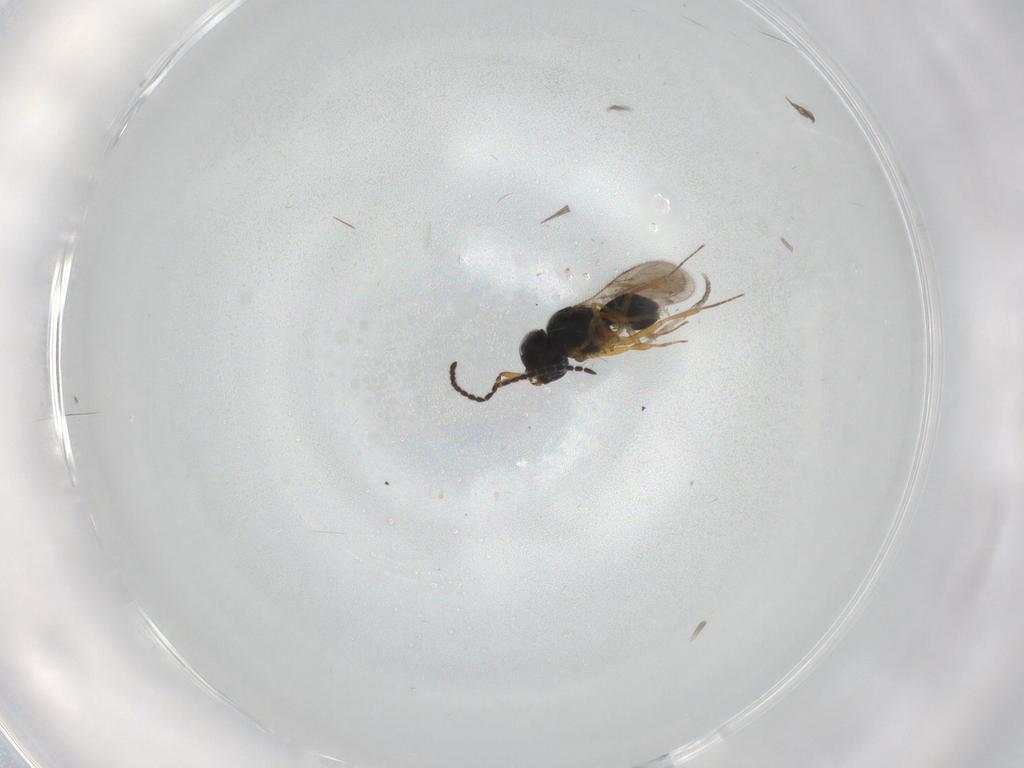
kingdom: Animalia
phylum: Arthropoda
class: Insecta
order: Hymenoptera
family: Scelionidae
